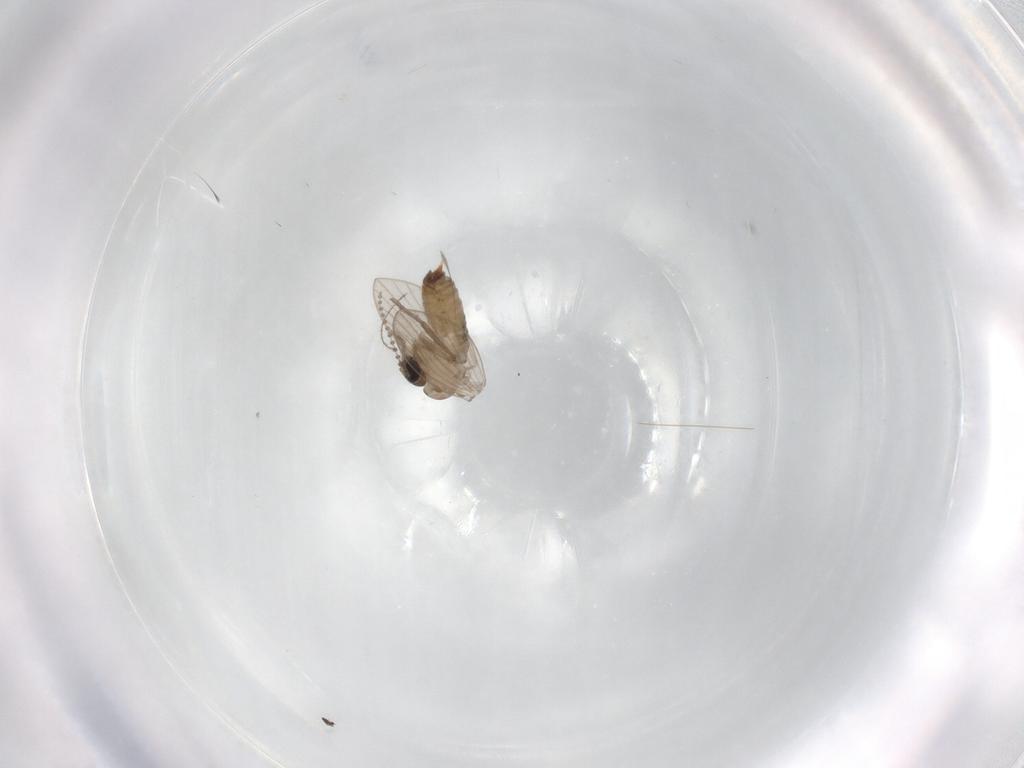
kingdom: Animalia
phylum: Arthropoda
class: Insecta
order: Diptera
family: Psychodidae
